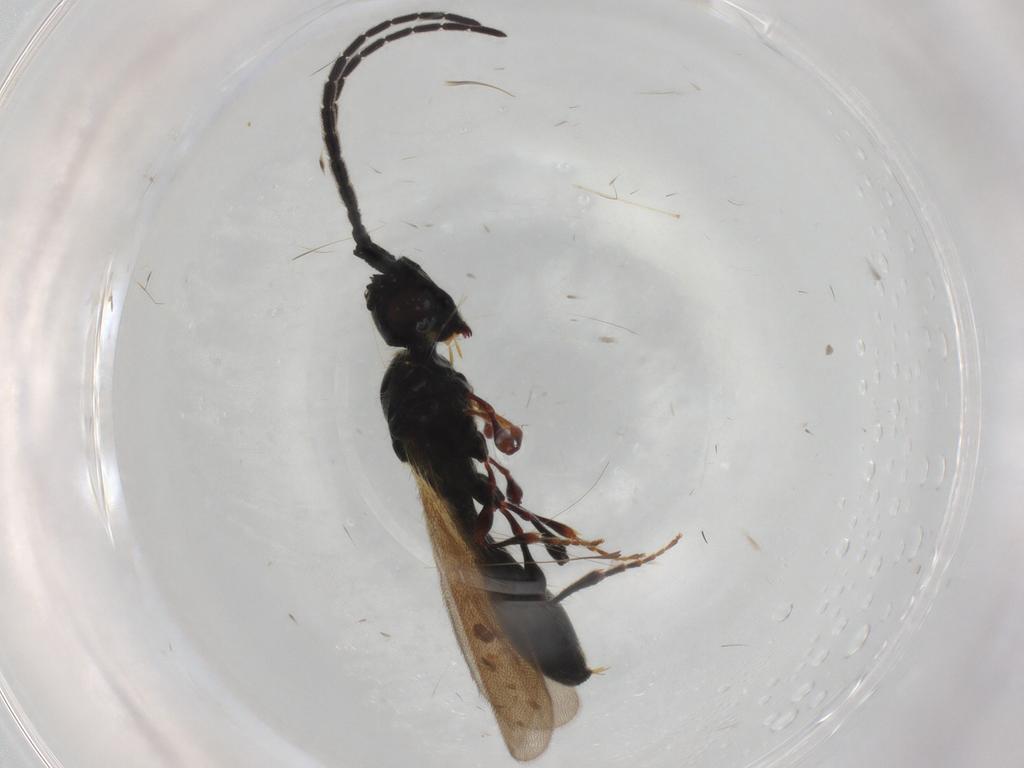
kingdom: Animalia
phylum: Arthropoda
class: Insecta
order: Hymenoptera
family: Diapriidae
